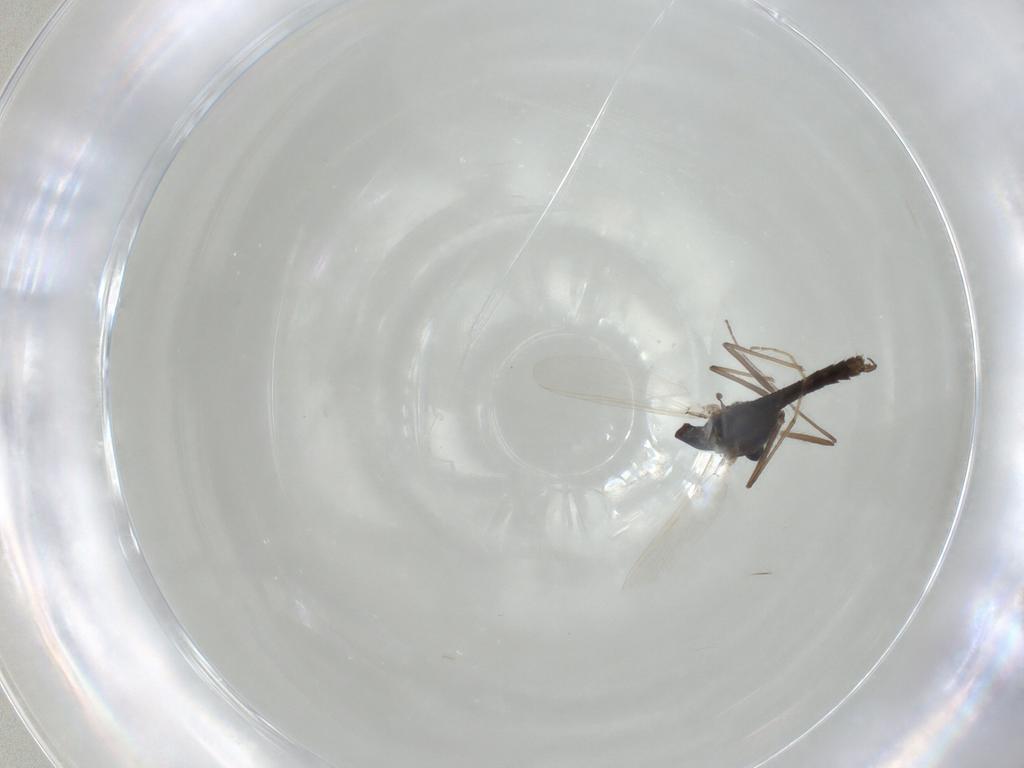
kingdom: Animalia
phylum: Arthropoda
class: Insecta
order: Diptera
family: Chironomidae
